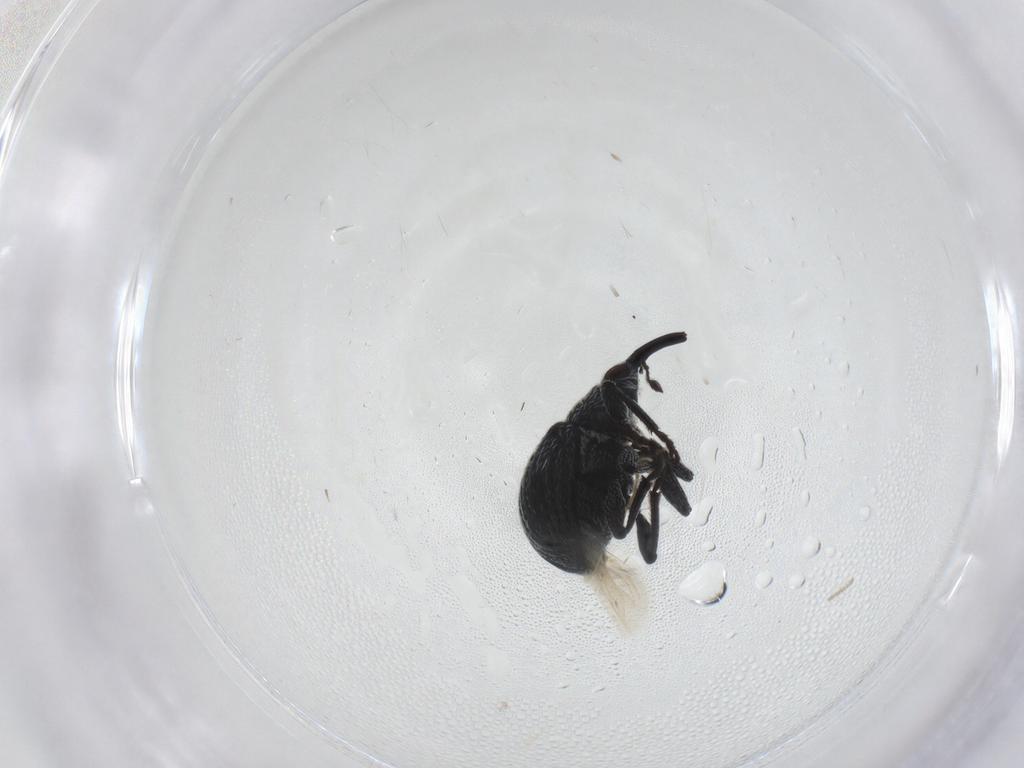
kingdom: Animalia
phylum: Arthropoda
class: Insecta
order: Coleoptera
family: Brentidae
